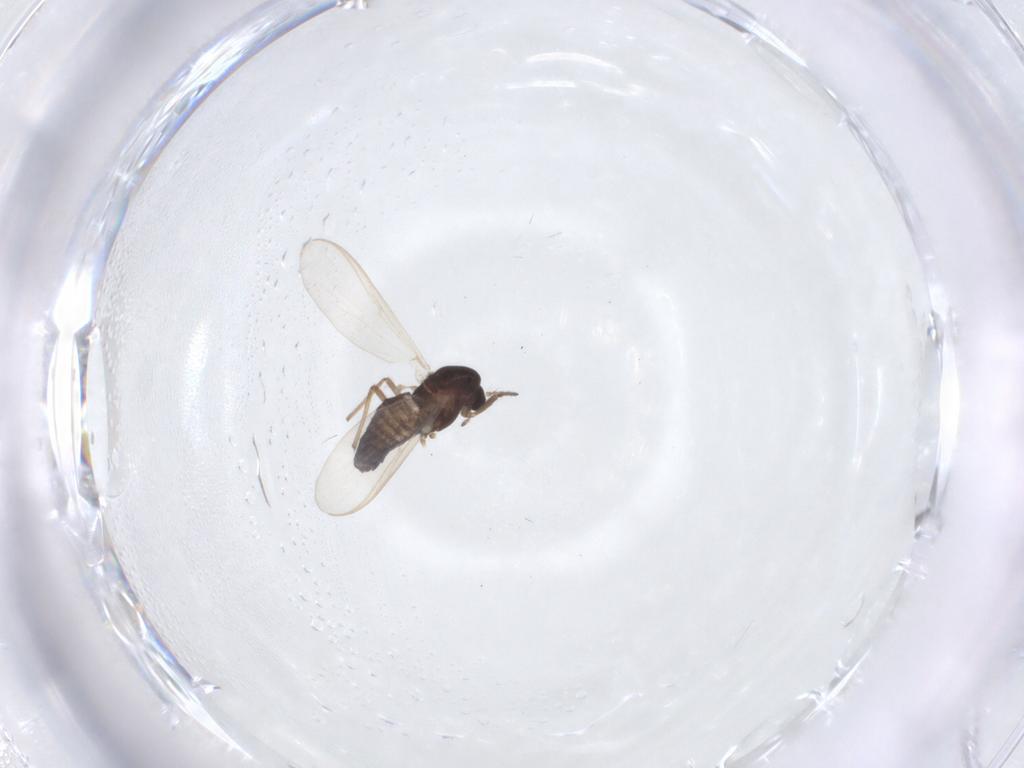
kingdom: Animalia
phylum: Arthropoda
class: Insecta
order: Diptera
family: Chironomidae
